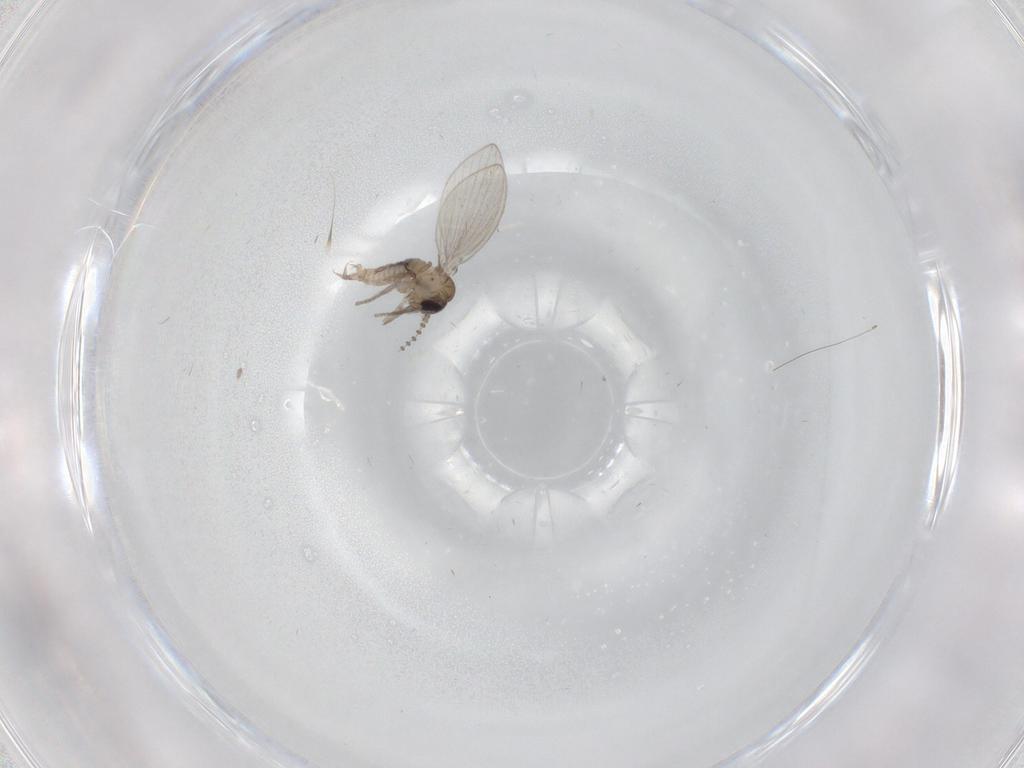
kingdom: Animalia
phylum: Arthropoda
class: Insecta
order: Diptera
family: Psychodidae
